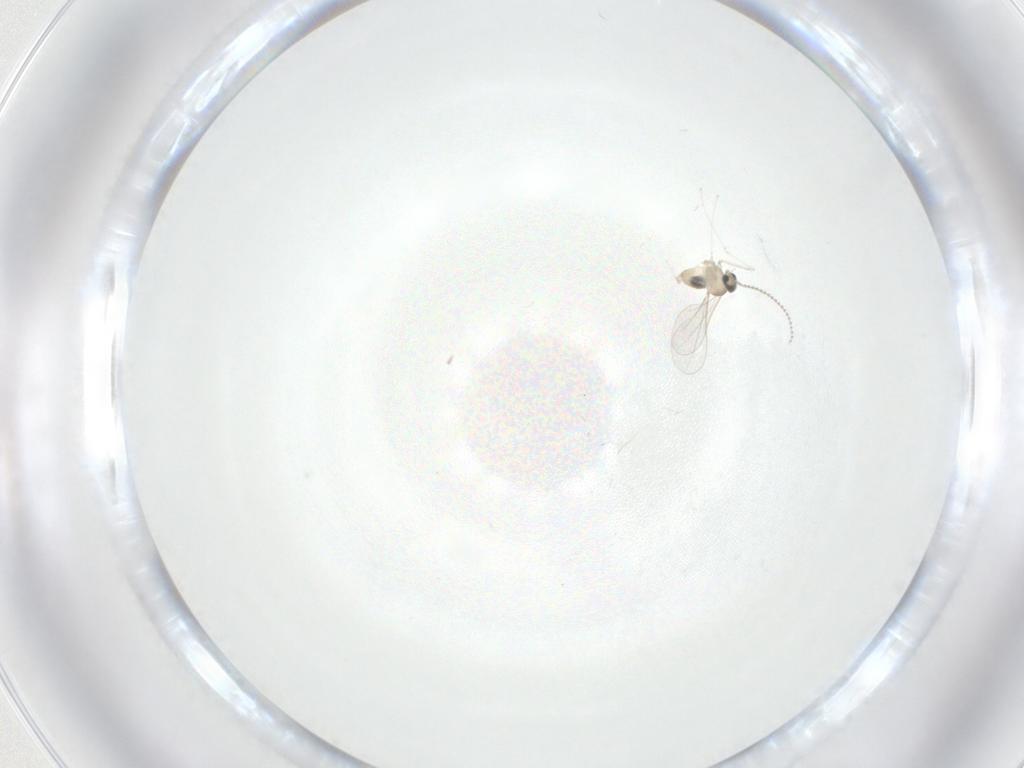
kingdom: Animalia
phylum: Arthropoda
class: Insecta
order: Diptera
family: Cecidomyiidae
